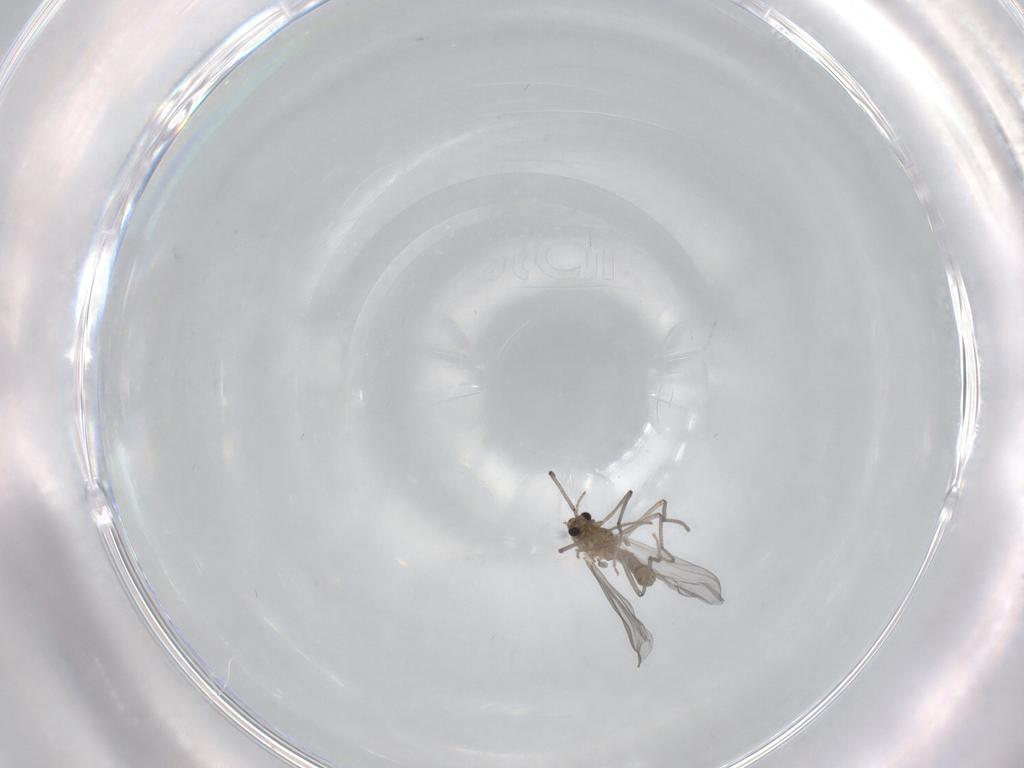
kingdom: Animalia
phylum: Arthropoda
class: Insecta
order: Diptera
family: Chironomidae
